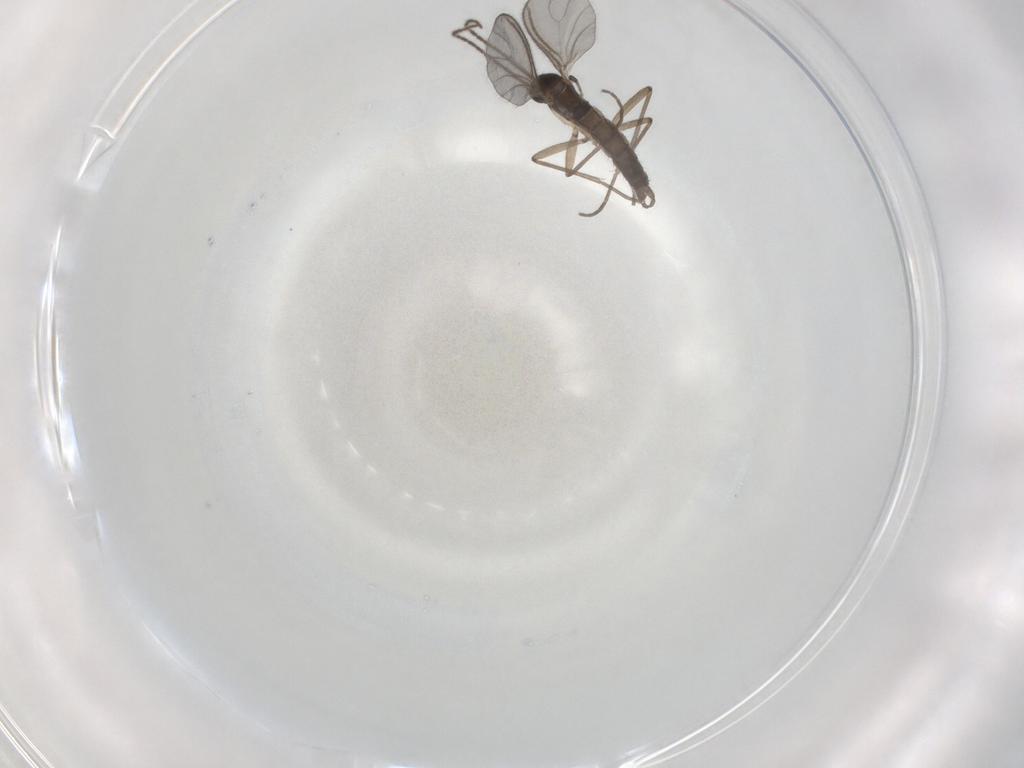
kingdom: Animalia
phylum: Arthropoda
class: Insecta
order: Diptera
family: Sciaridae
